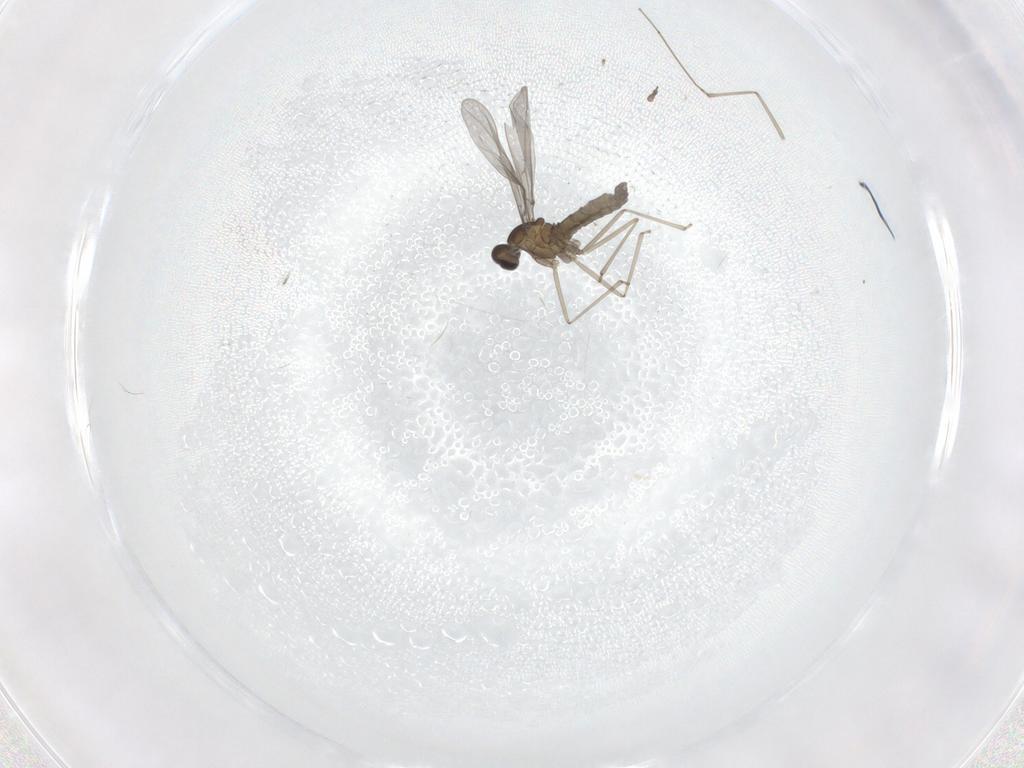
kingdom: Animalia
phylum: Arthropoda
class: Insecta
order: Diptera
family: Cecidomyiidae
